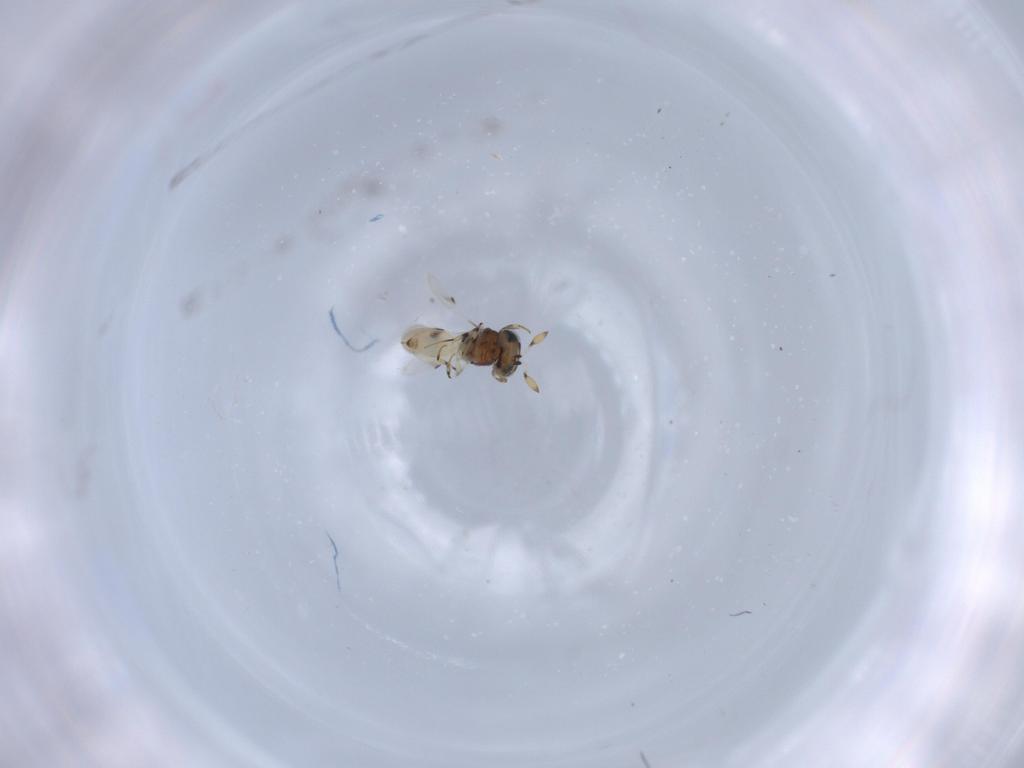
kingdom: Animalia
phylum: Arthropoda
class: Insecta
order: Hymenoptera
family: Scelionidae
